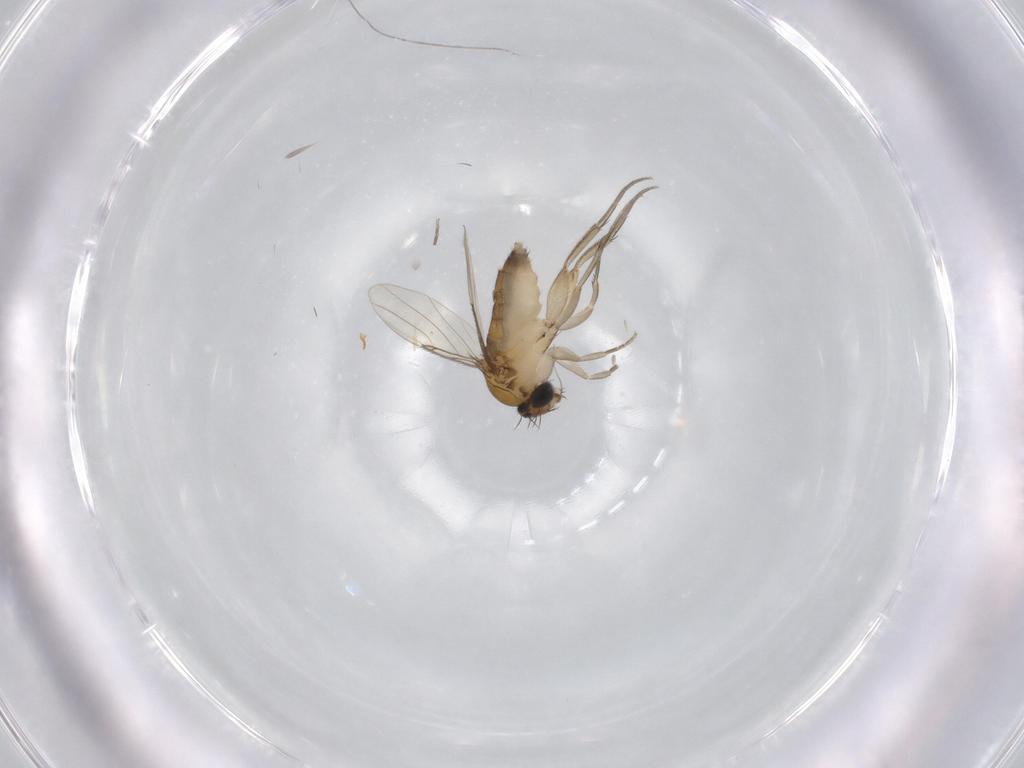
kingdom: Animalia
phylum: Arthropoda
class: Insecta
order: Diptera
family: Phoridae
